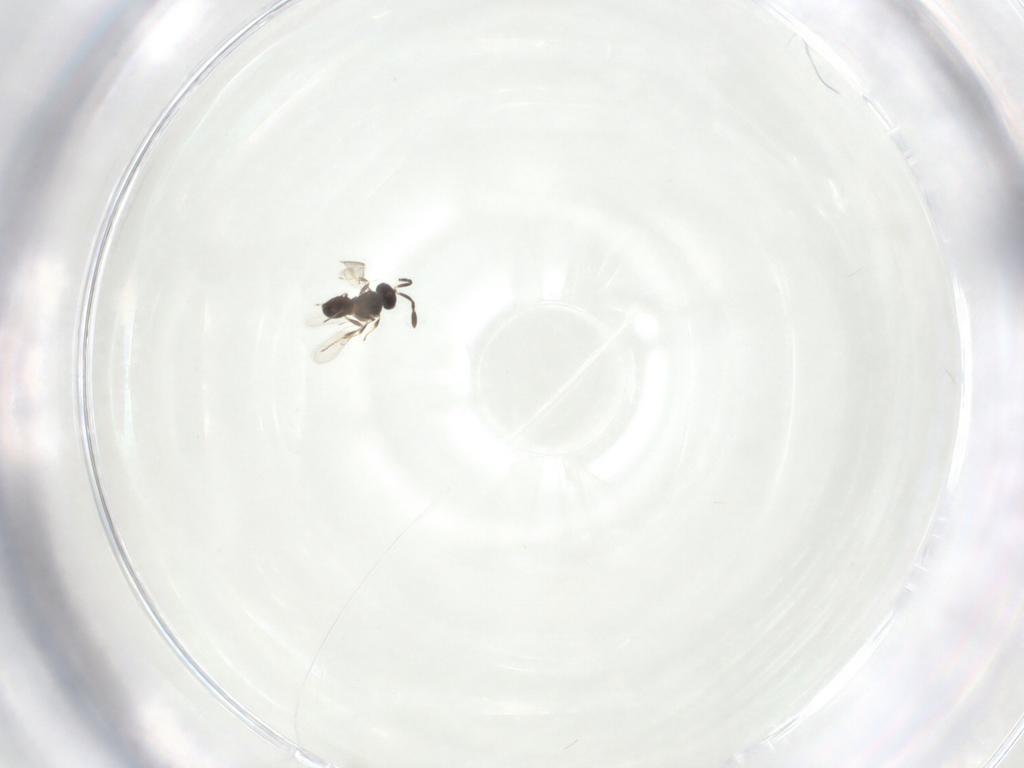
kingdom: Animalia
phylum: Arthropoda
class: Insecta
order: Hymenoptera
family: Scelionidae
